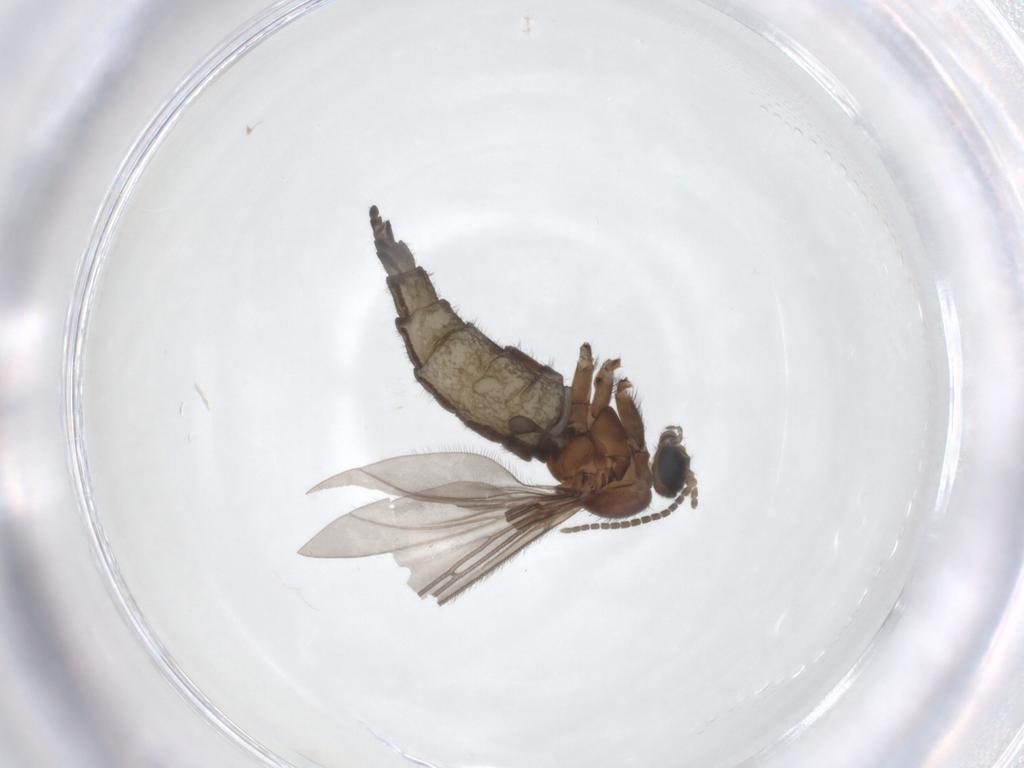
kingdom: Animalia
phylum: Arthropoda
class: Insecta
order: Diptera
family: Sciaridae
